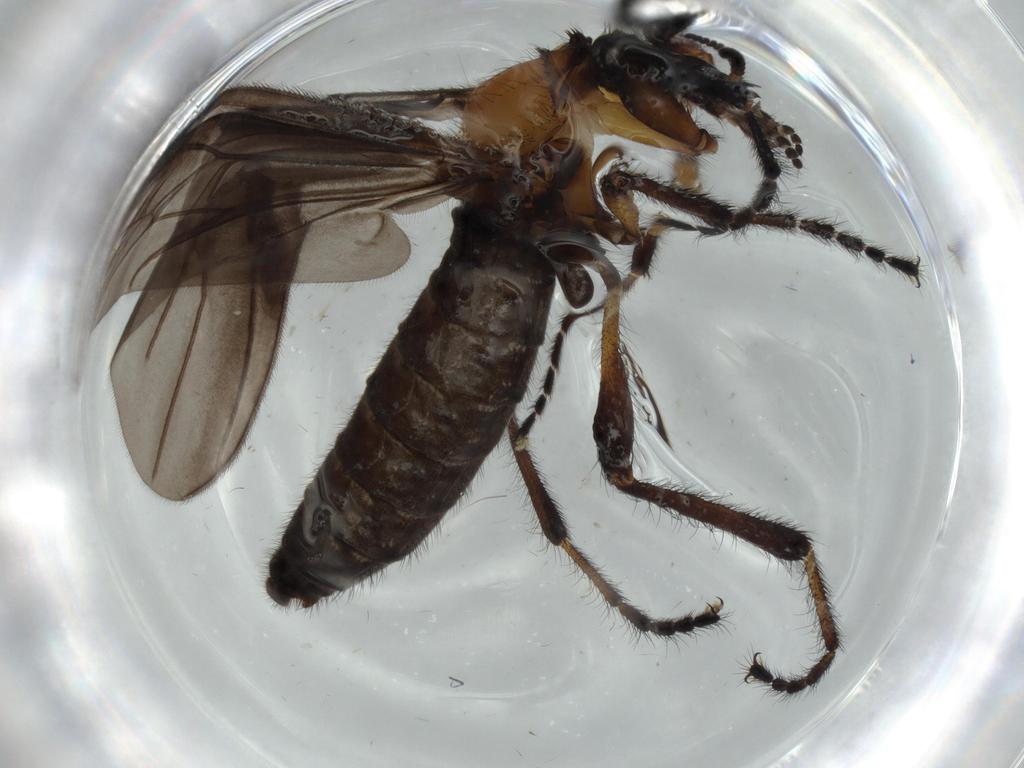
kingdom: Animalia
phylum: Arthropoda
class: Insecta
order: Diptera
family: Bibionidae
